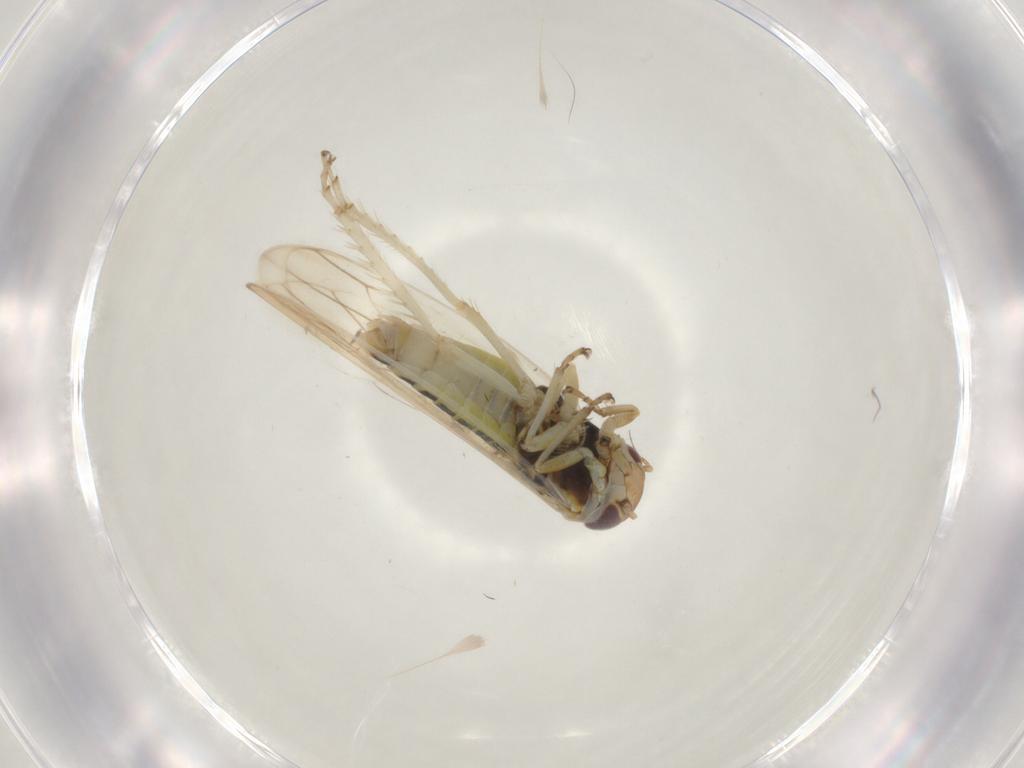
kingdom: Animalia
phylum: Arthropoda
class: Insecta
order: Hemiptera
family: Cicadellidae
